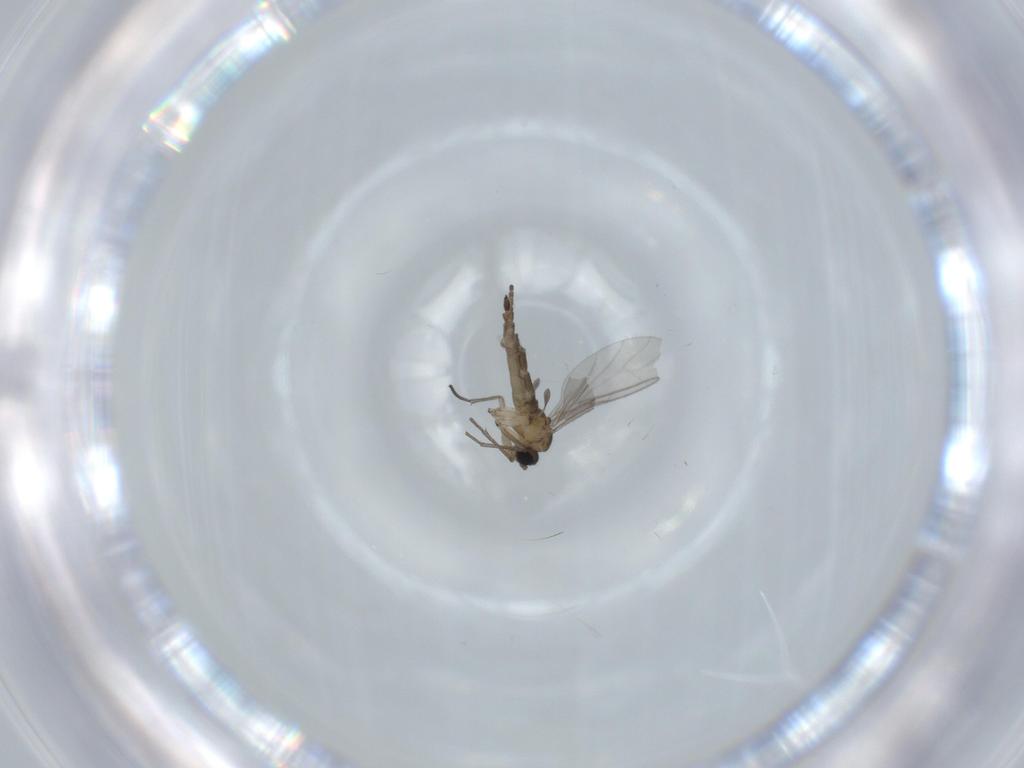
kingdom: Animalia
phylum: Arthropoda
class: Insecta
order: Diptera
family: Sciaridae
